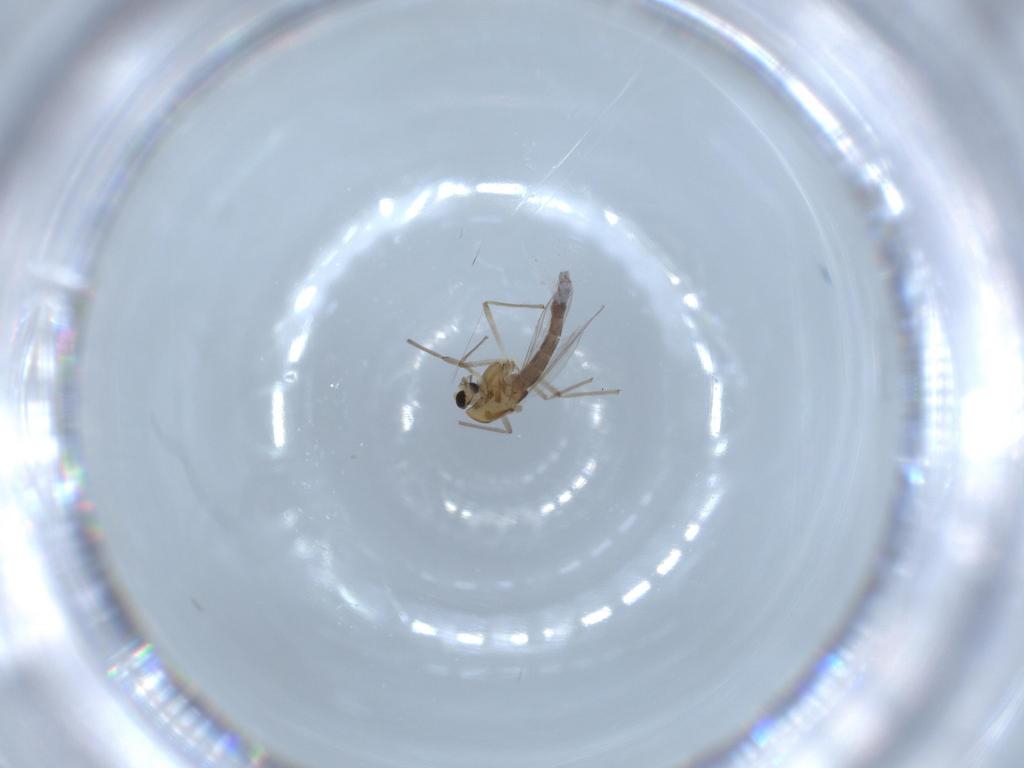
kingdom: Animalia
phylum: Arthropoda
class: Insecta
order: Diptera
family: Chironomidae
